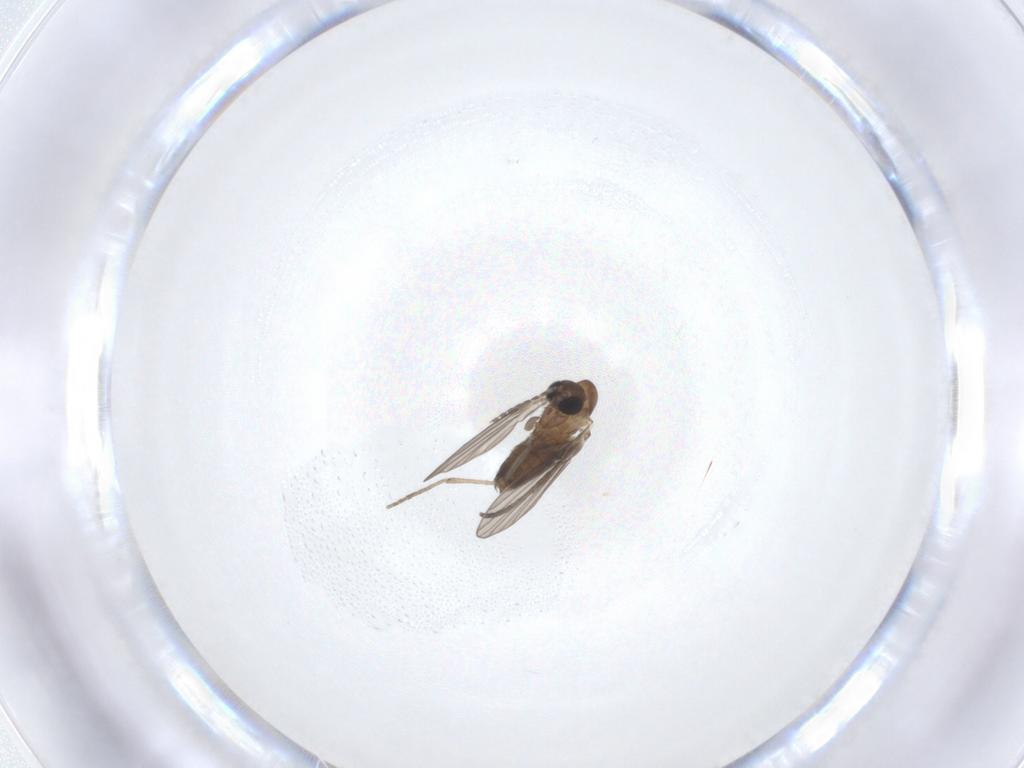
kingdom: Animalia
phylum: Arthropoda
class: Insecta
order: Diptera
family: Psychodidae
